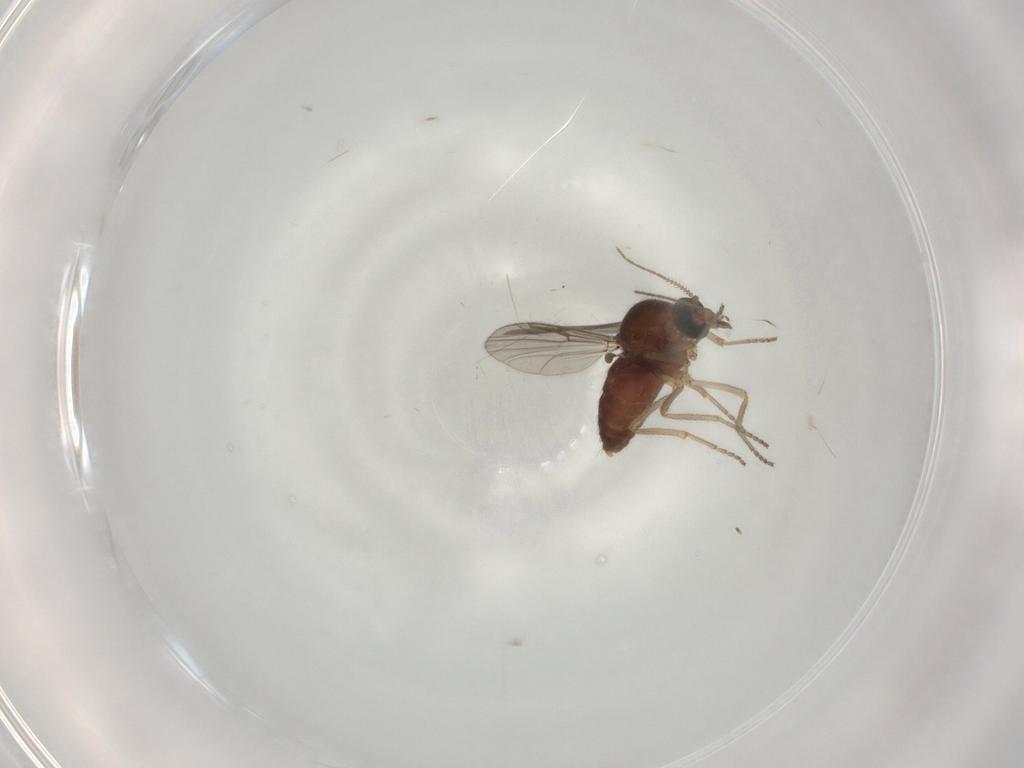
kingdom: Animalia
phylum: Arthropoda
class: Insecta
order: Diptera
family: Ceratopogonidae
